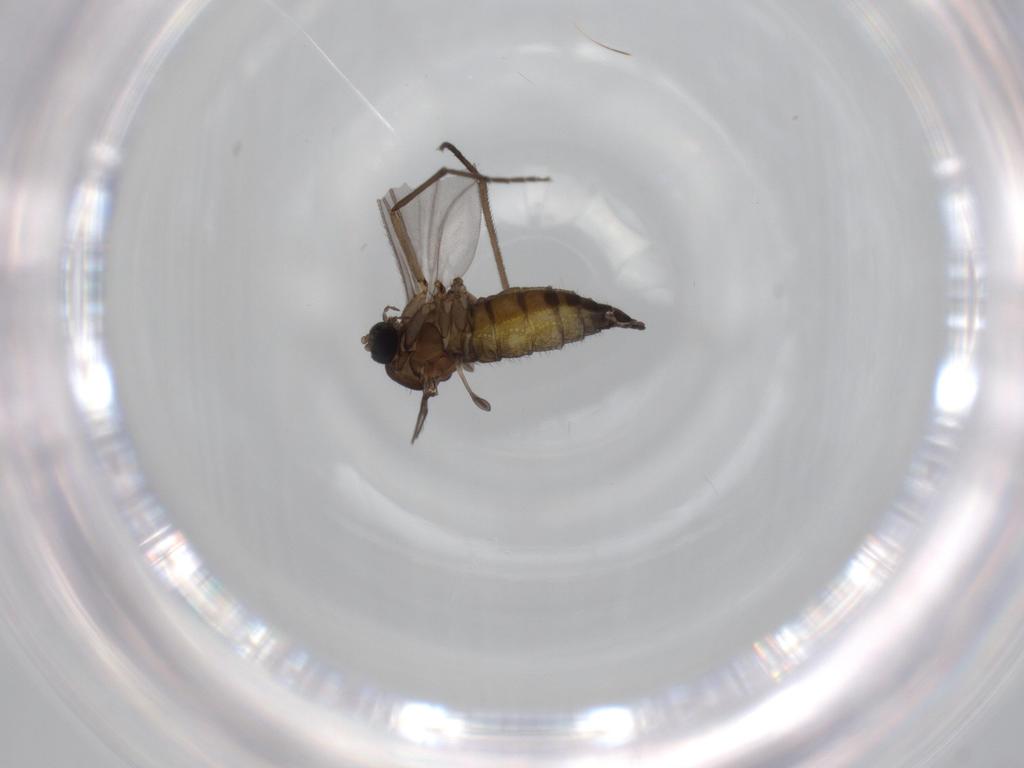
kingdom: Animalia
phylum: Arthropoda
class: Insecta
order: Diptera
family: Sciaridae
